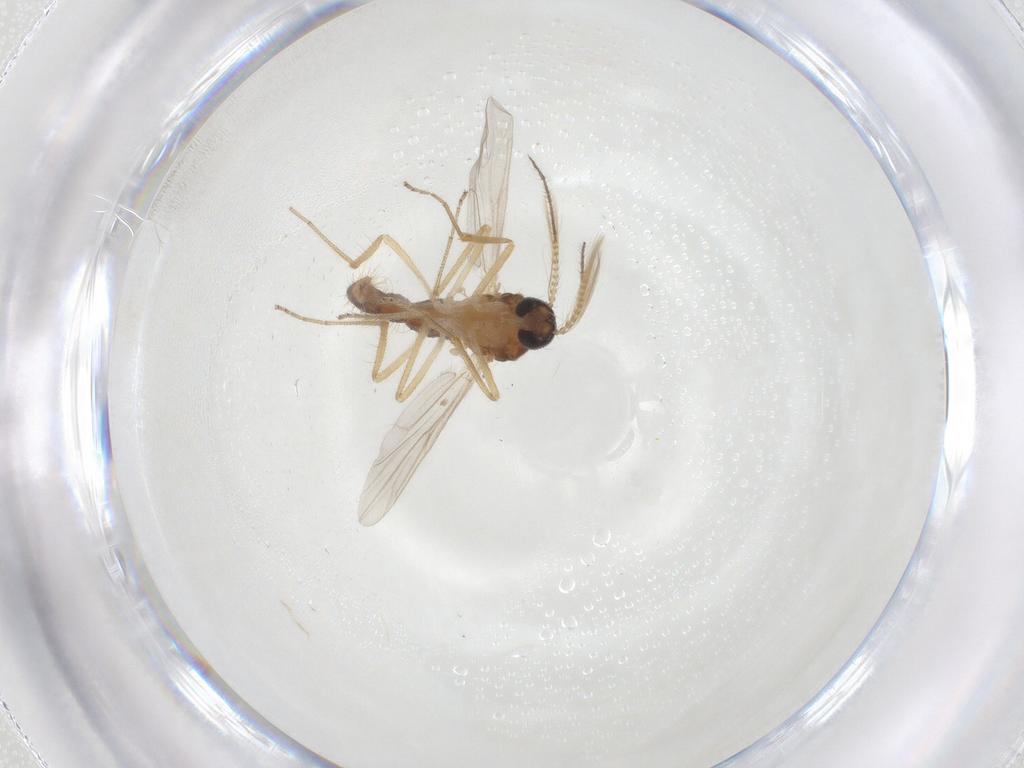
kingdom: Animalia
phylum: Arthropoda
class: Insecta
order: Diptera
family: Ceratopogonidae
